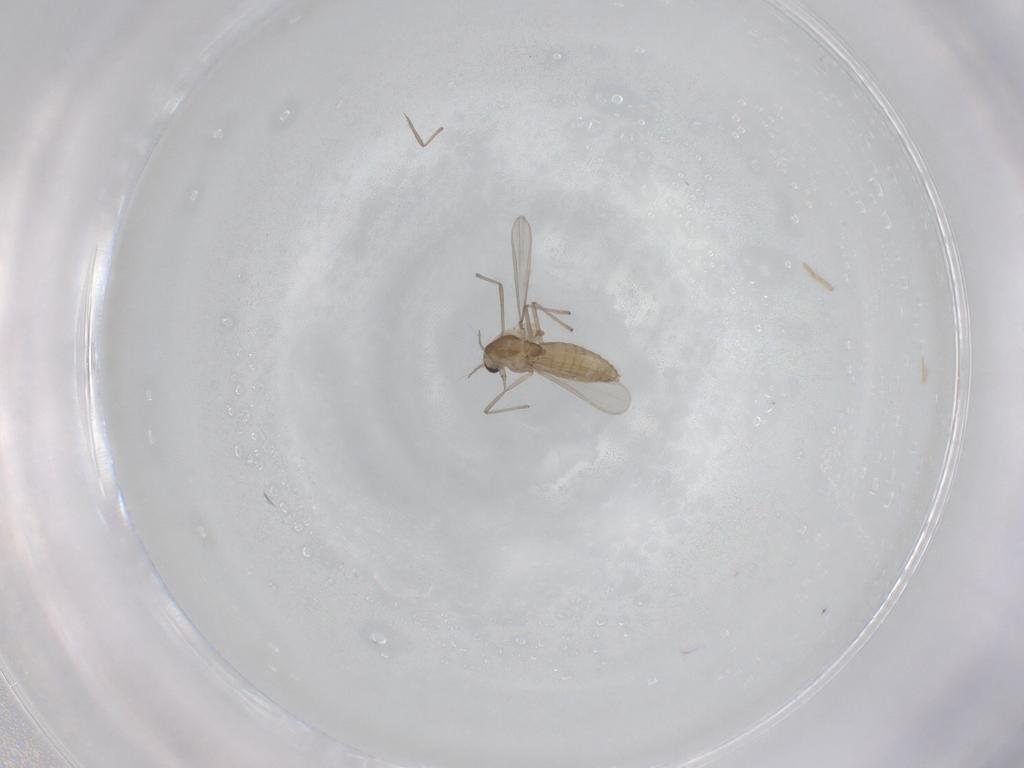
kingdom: Animalia
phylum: Arthropoda
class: Insecta
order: Diptera
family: Chironomidae
